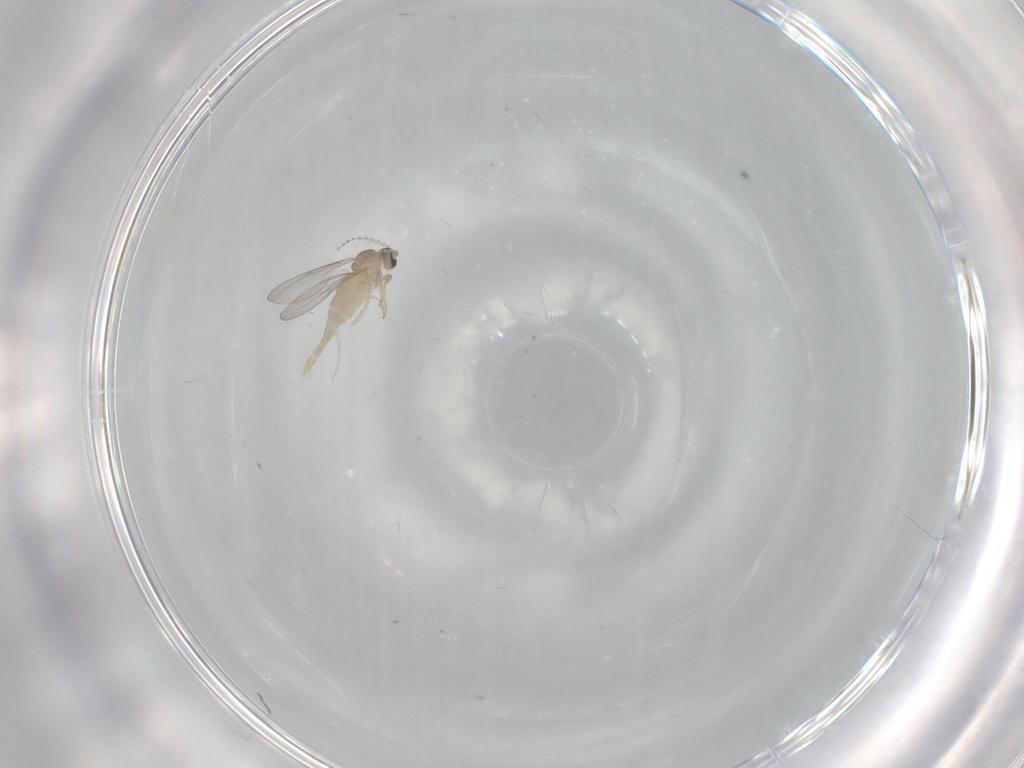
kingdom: Animalia
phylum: Arthropoda
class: Insecta
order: Diptera
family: Cecidomyiidae
